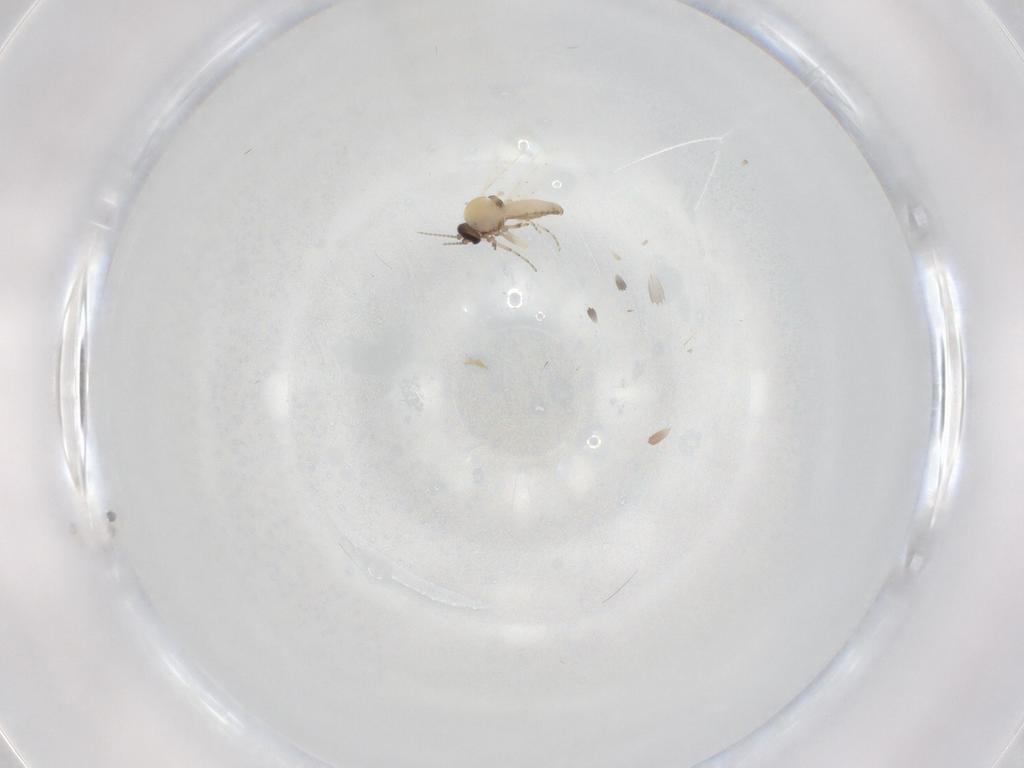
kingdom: Animalia
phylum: Arthropoda
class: Insecta
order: Diptera
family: Ceratopogonidae
